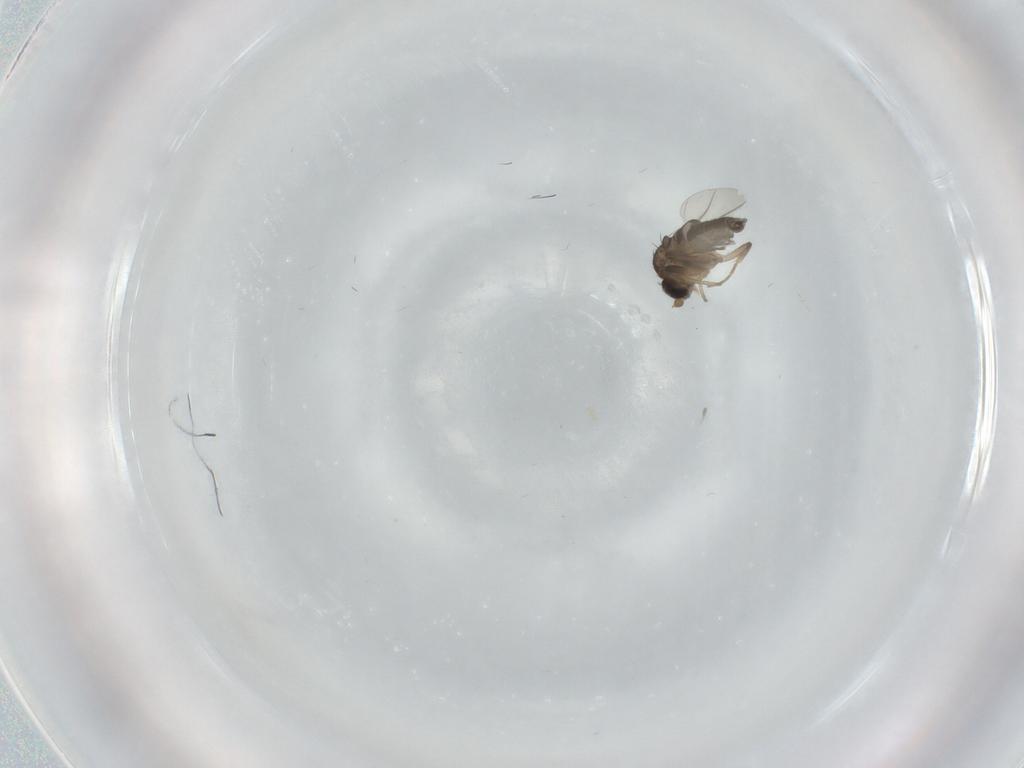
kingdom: Animalia
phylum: Arthropoda
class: Insecta
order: Diptera
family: Phoridae
